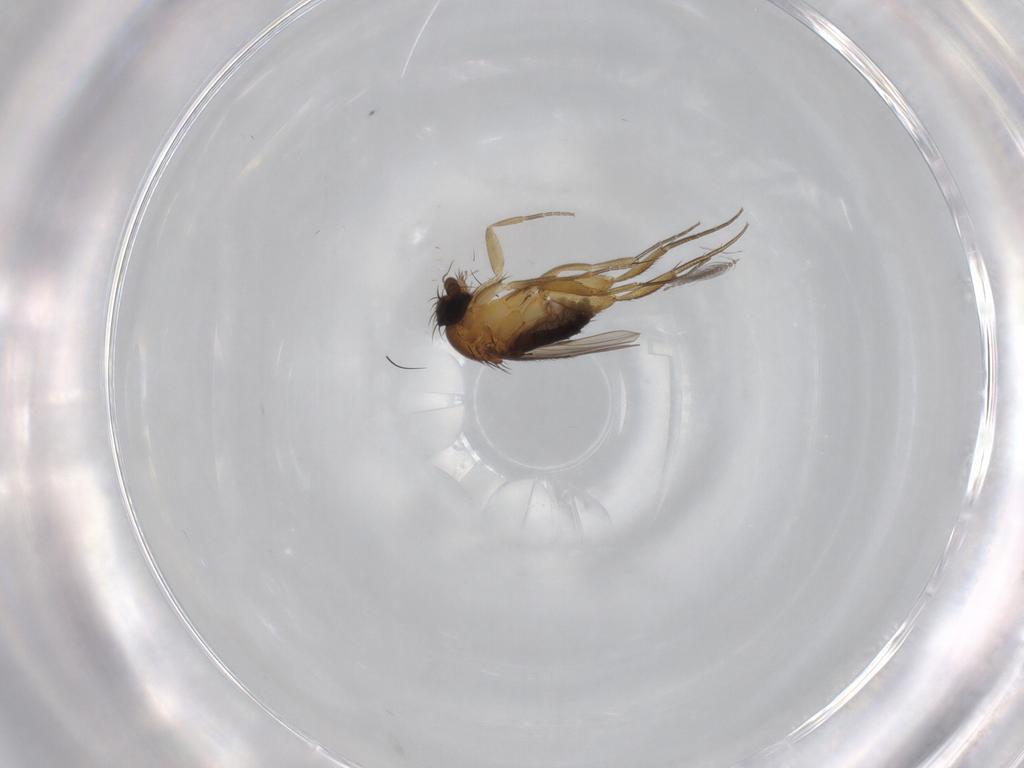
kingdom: Animalia
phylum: Arthropoda
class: Insecta
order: Diptera
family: Phoridae
